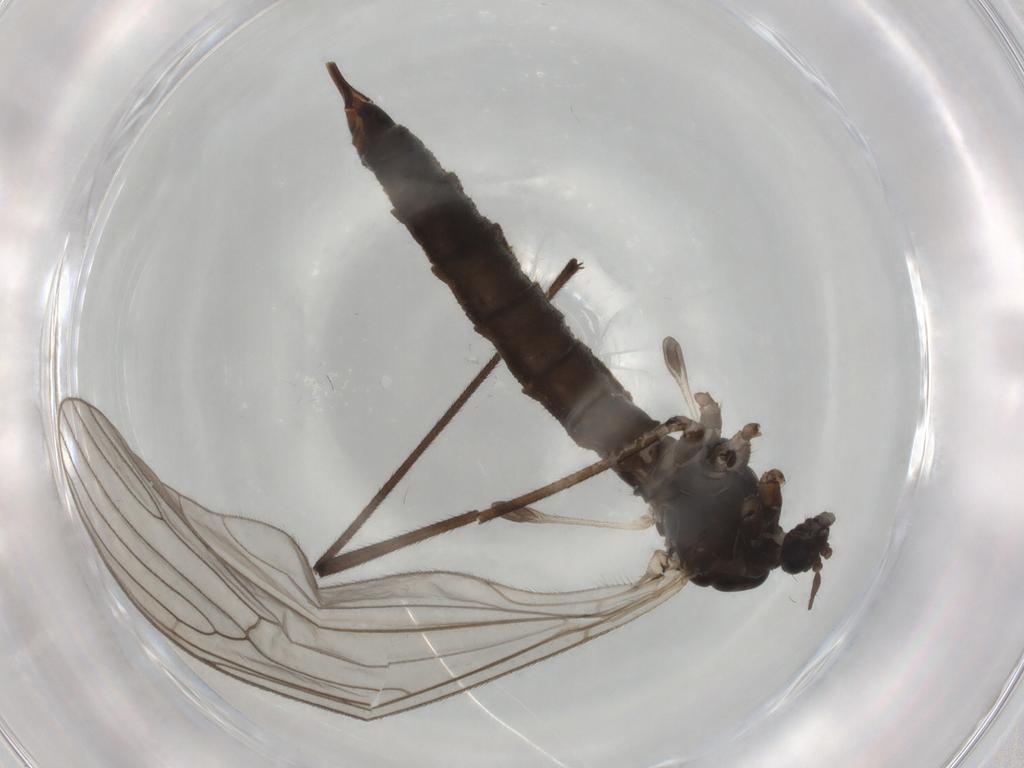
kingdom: Animalia
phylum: Arthropoda
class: Insecta
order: Diptera
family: Trichoceridae
